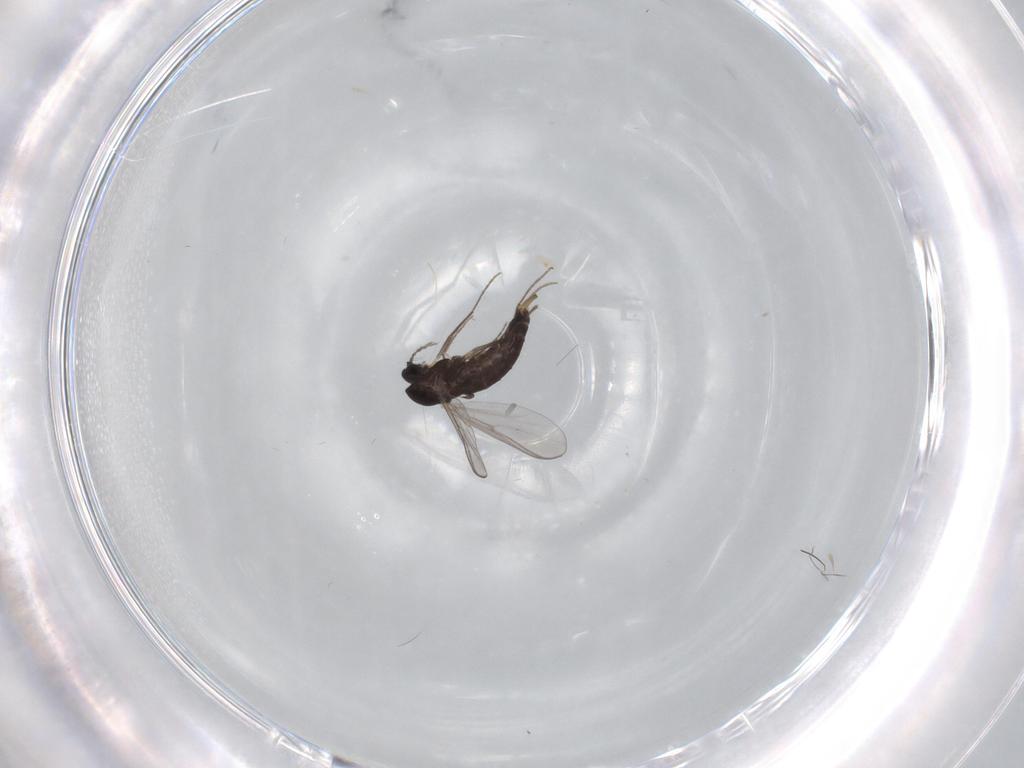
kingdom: Animalia
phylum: Arthropoda
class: Insecta
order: Diptera
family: Chironomidae
